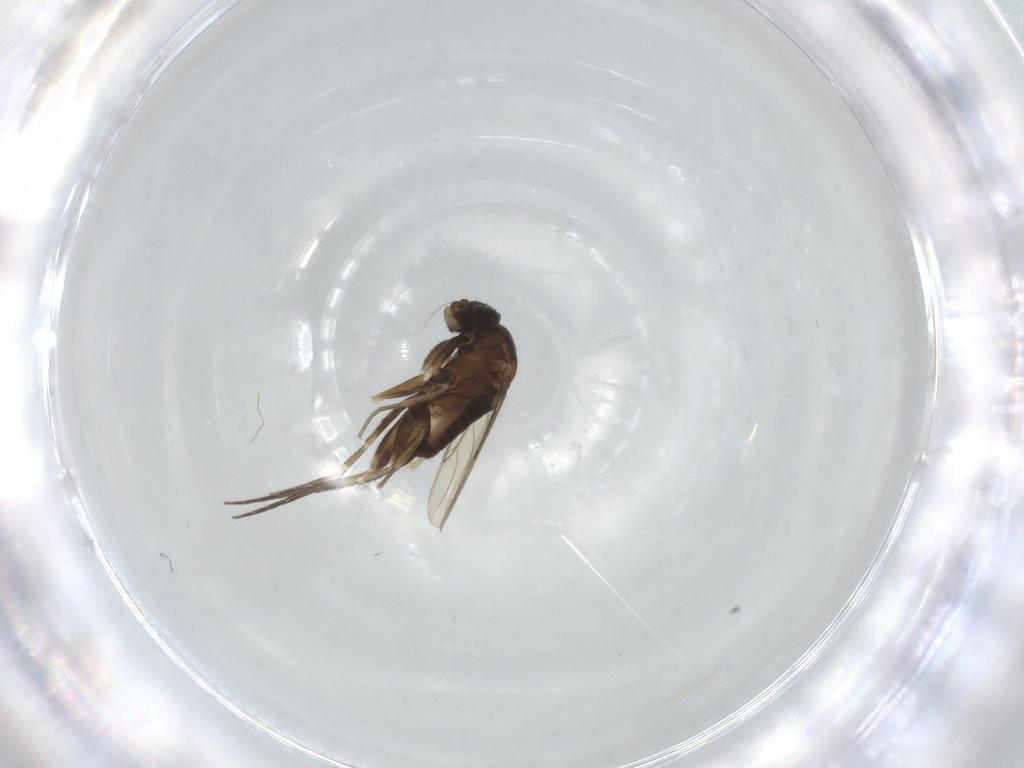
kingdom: Animalia
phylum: Arthropoda
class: Insecta
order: Diptera
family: Phoridae
